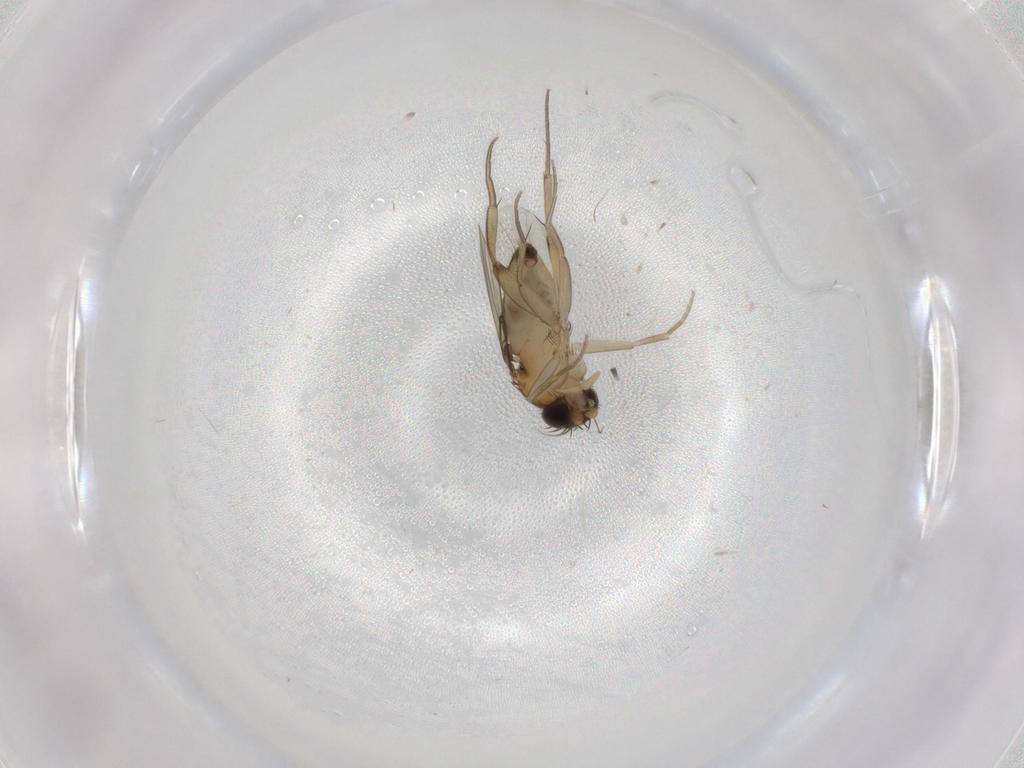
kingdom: Animalia
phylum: Arthropoda
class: Insecta
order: Diptera
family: Phoridae
